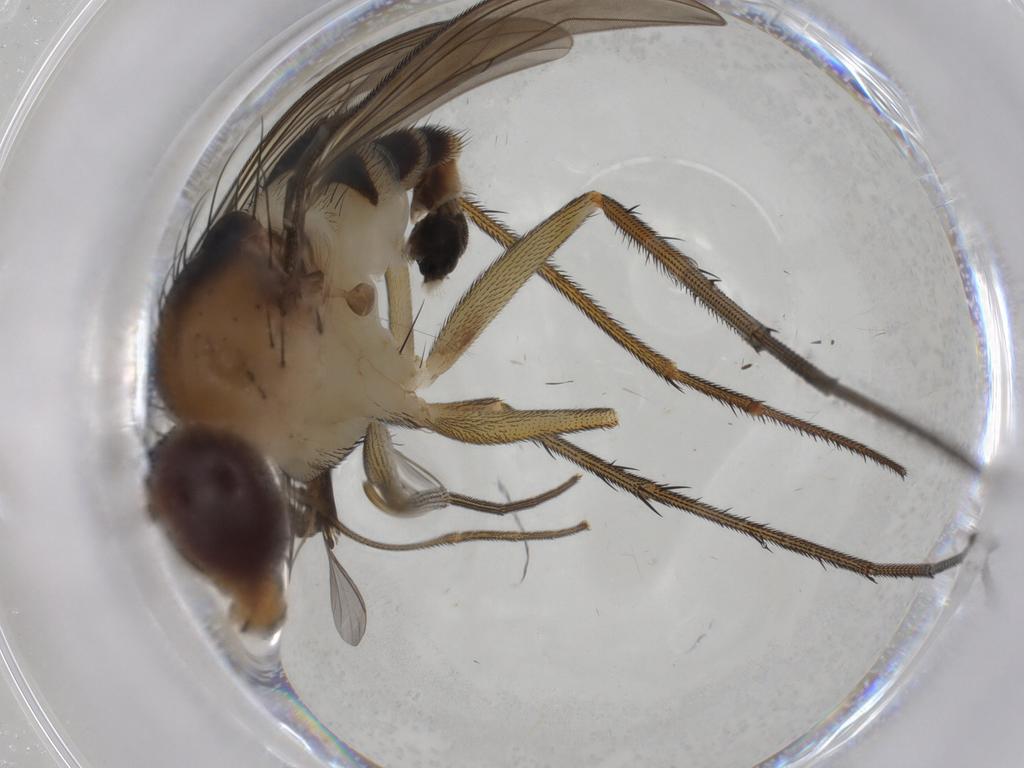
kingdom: Animalia
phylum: Arthropoda
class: Insecta
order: Diptera
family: Dolichopodidae
